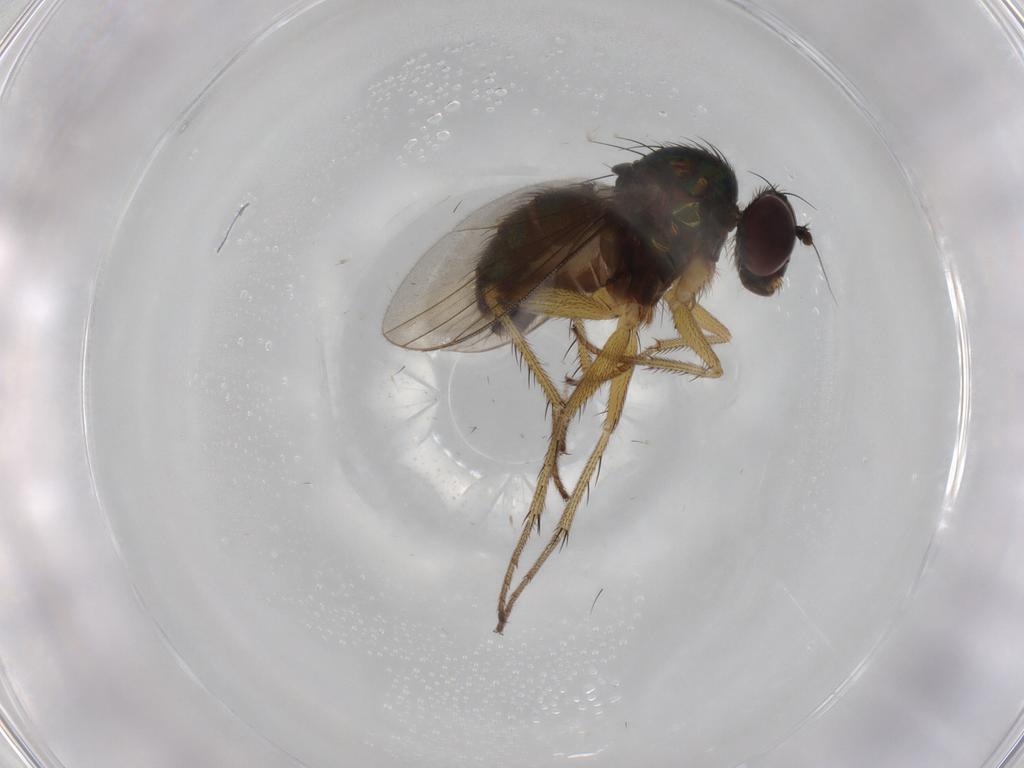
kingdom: Animalia
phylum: Arthropoda
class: Insecta
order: Diptera
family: Dolichopodidae
